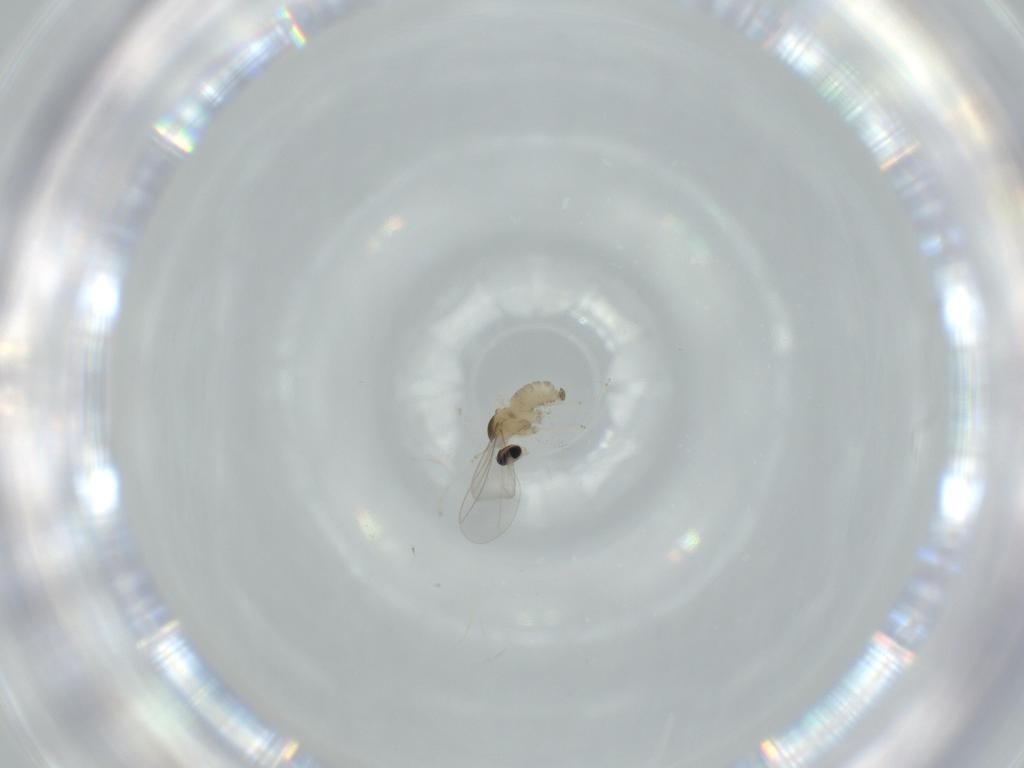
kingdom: Animalia
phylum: Arthropoda
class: Insecta
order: Diptera
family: Cecidomyiidae
